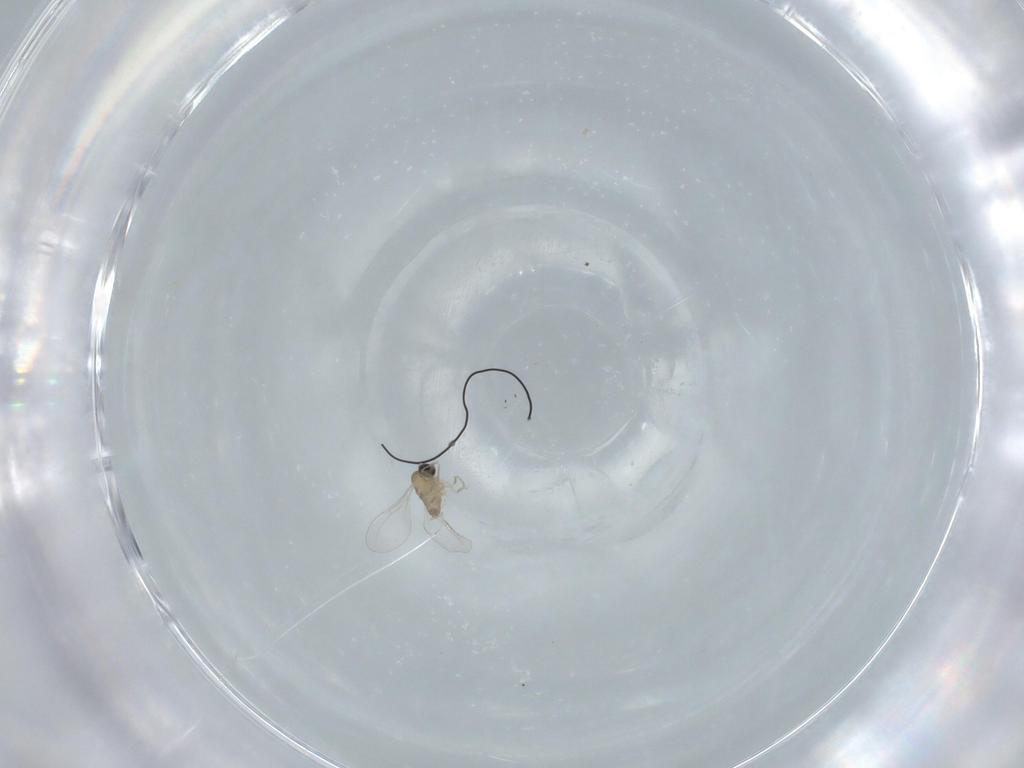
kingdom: Animalia
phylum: Arthropoda
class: Insecta
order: Diptera
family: Cecidomyiidae
